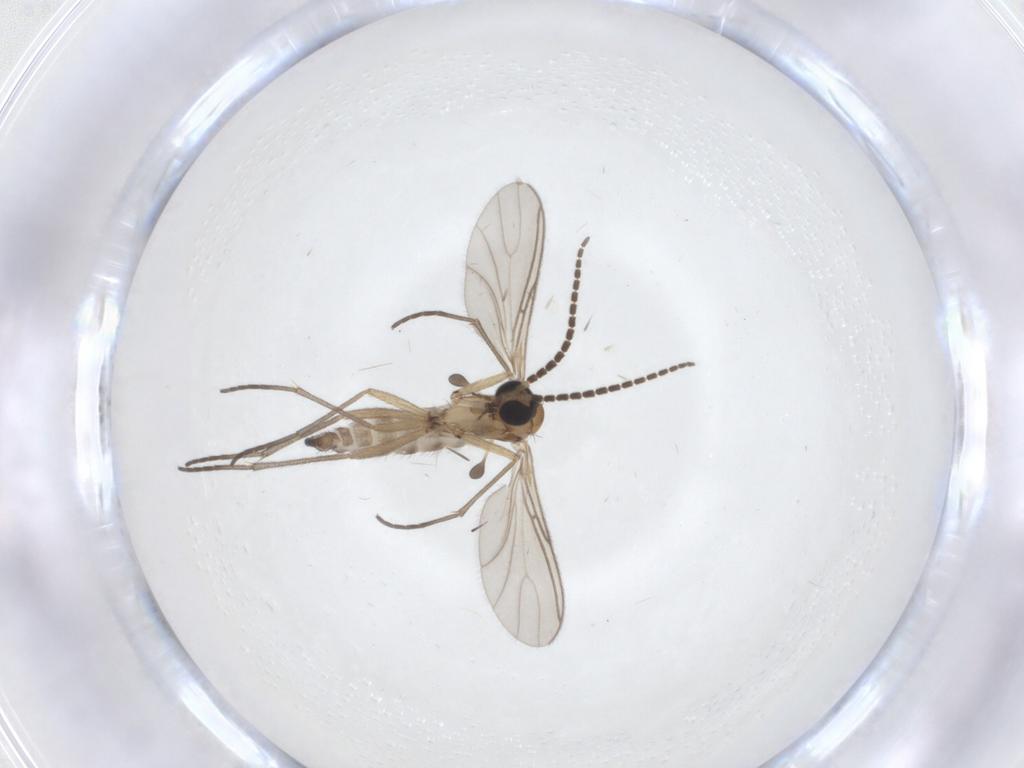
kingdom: Animalia
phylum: Arthropoda
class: Insecta
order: Diptera
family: Sciaridae
